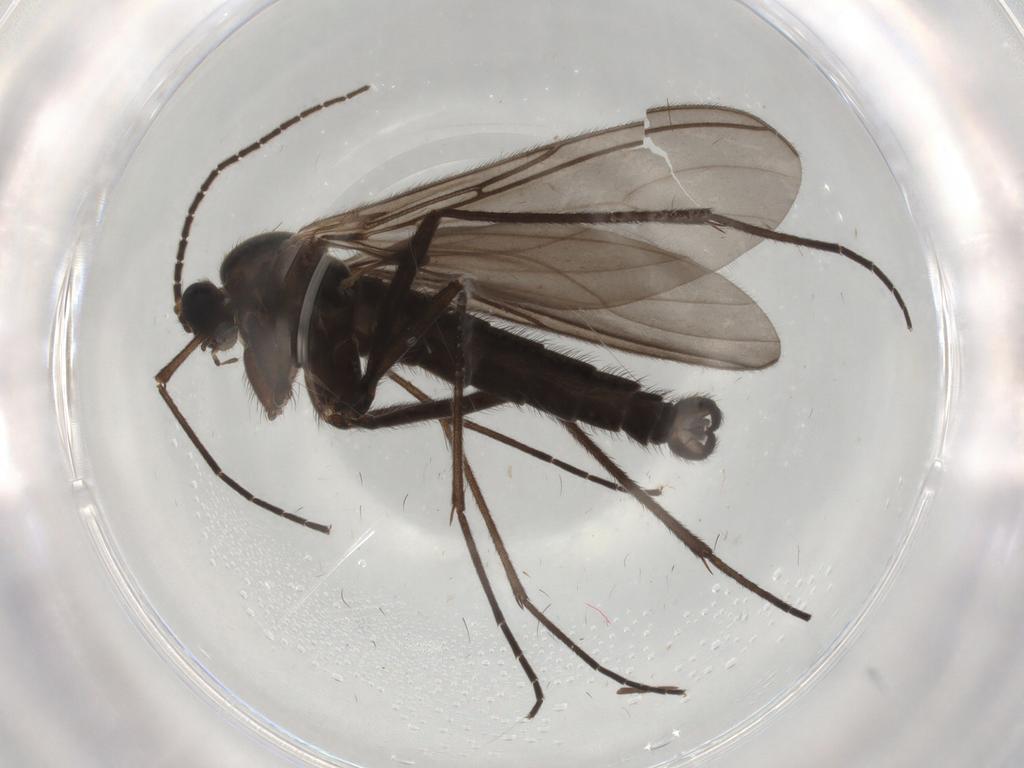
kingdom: Animalia
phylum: Arthropoda
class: Insecta
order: Diptera
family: Sciaridae
